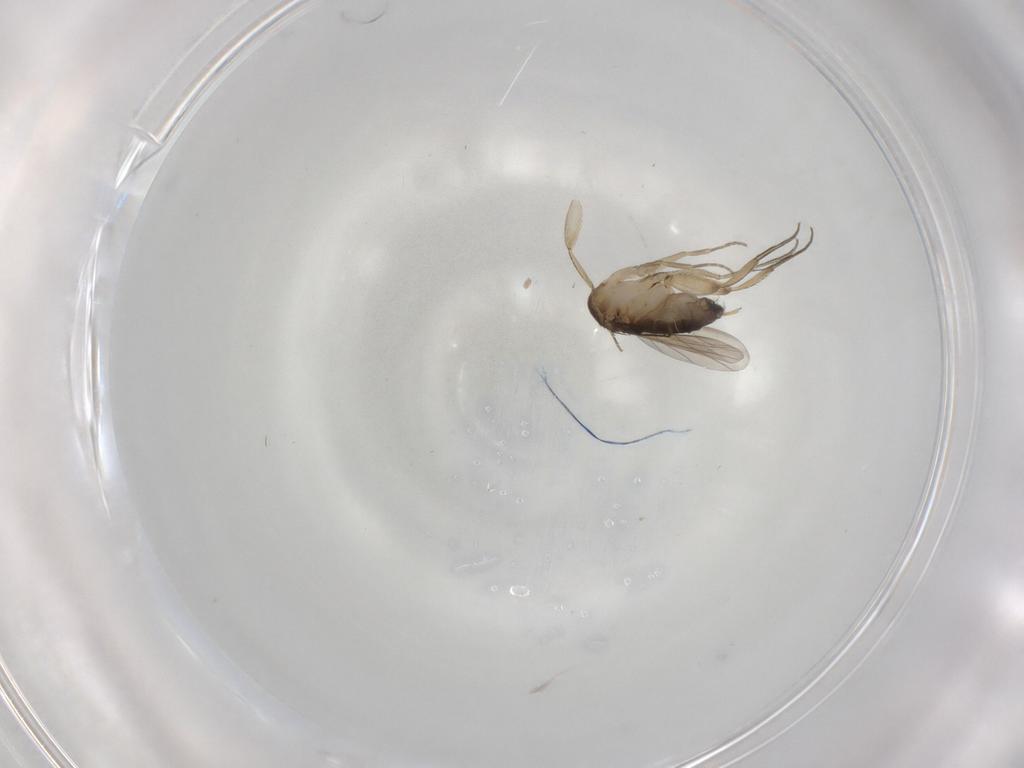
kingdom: Animalia
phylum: Arthropoda
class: Insecta
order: Diptera
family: Phoridae
